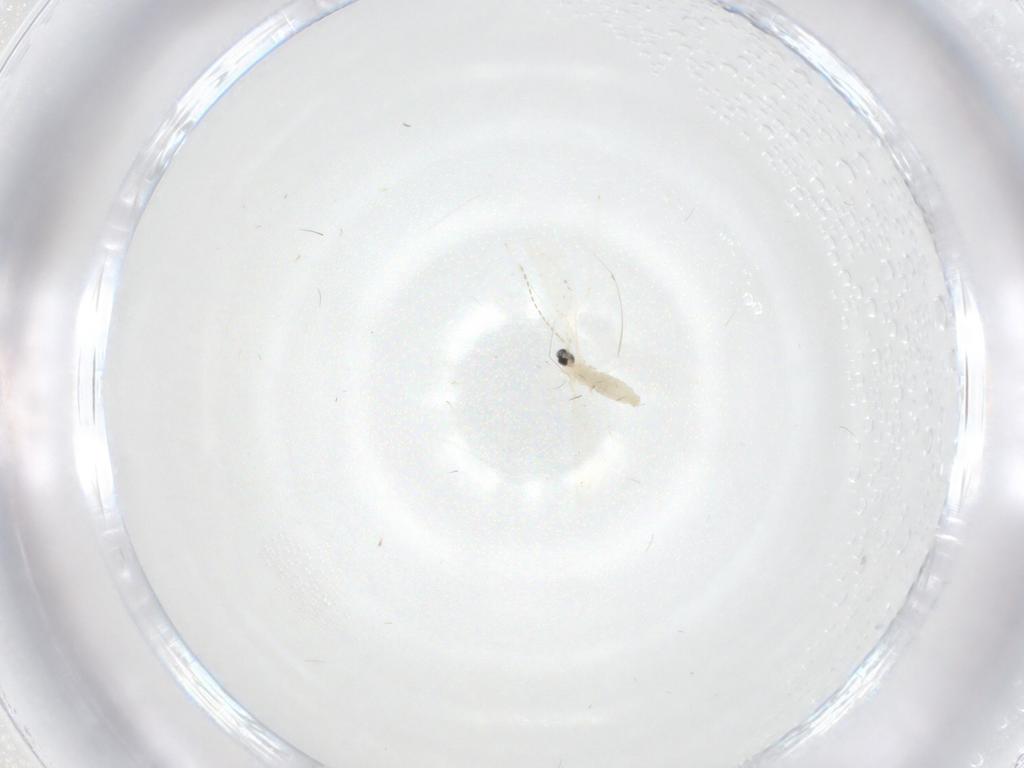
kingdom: Animalia
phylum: Arthropoda
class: Insecta
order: Diptera
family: Cecidomyiidae
